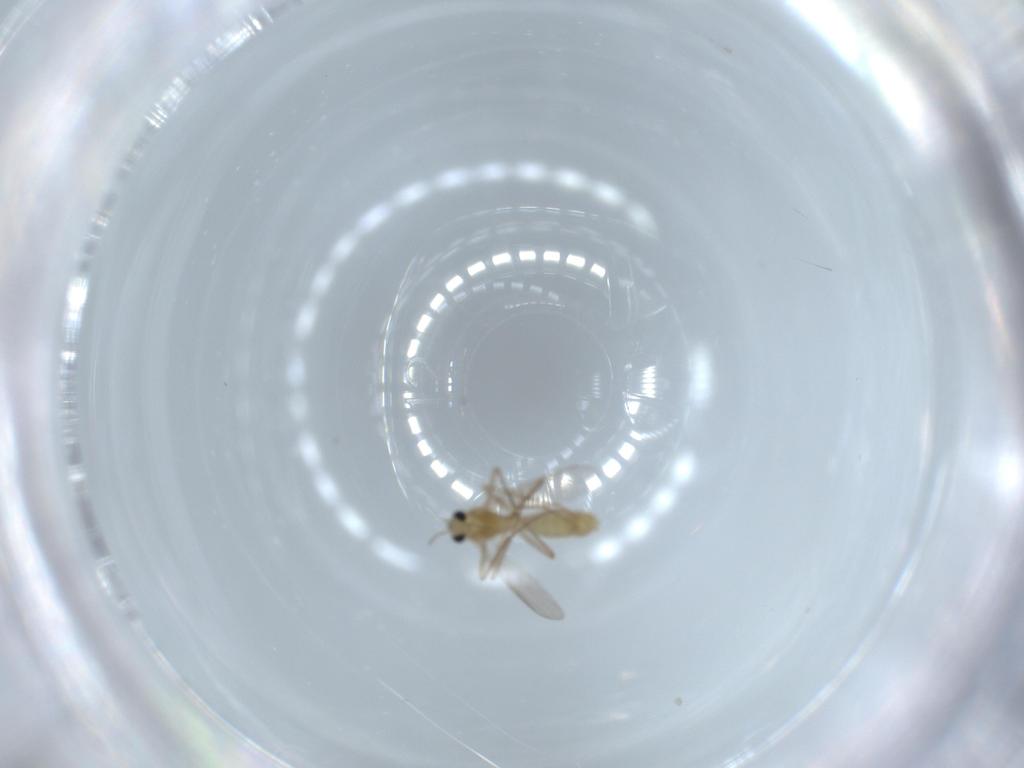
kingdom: Animalia
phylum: Arthropoda
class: Insecta
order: Diptera
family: Chironomidae
